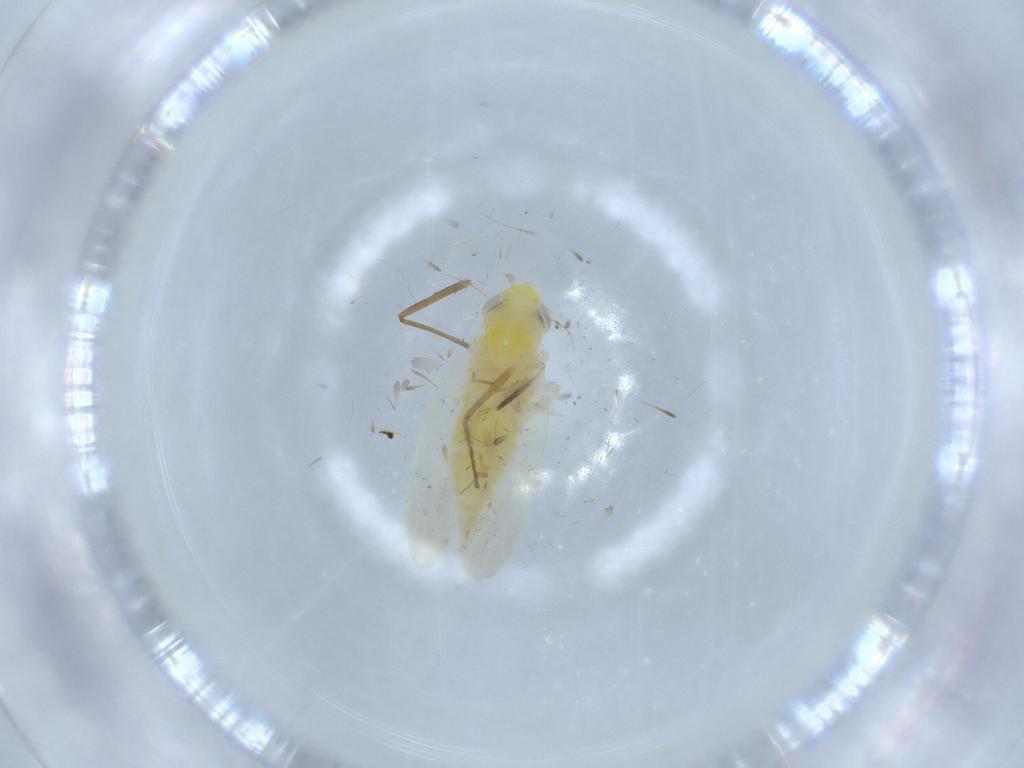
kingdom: Animalia
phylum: Arthropoda
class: Insecta
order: Hemiptera
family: Cicadellidae
